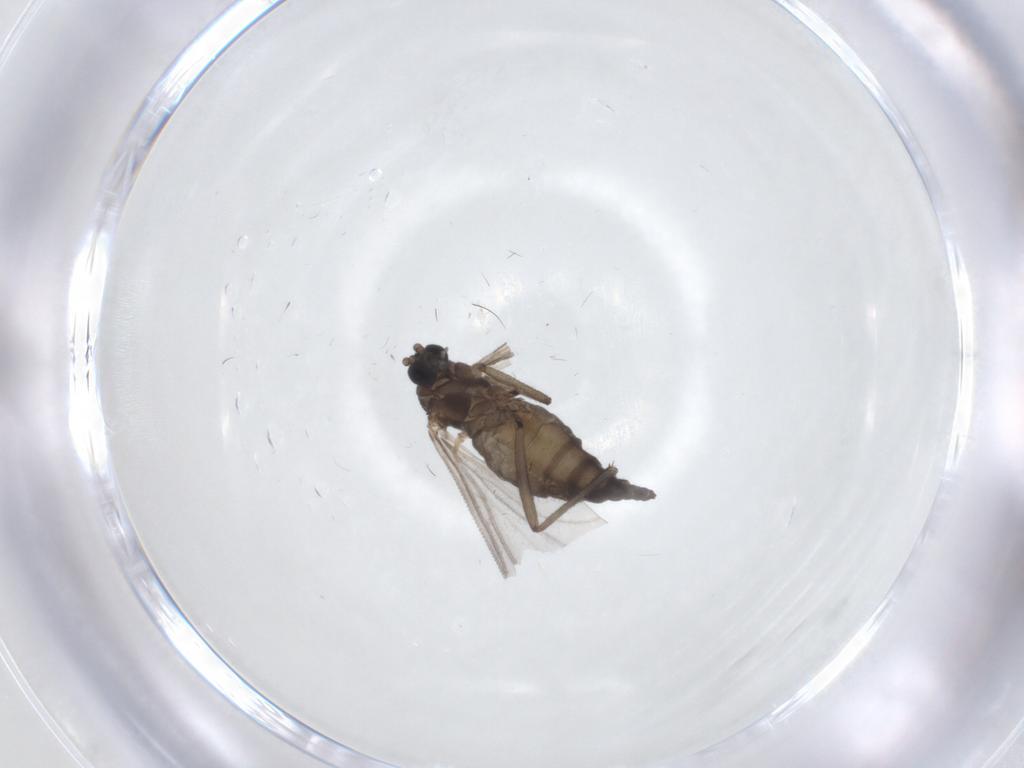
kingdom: Animalia
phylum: Arthropoda
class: Insecta
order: Diptera
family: Sciaridae
